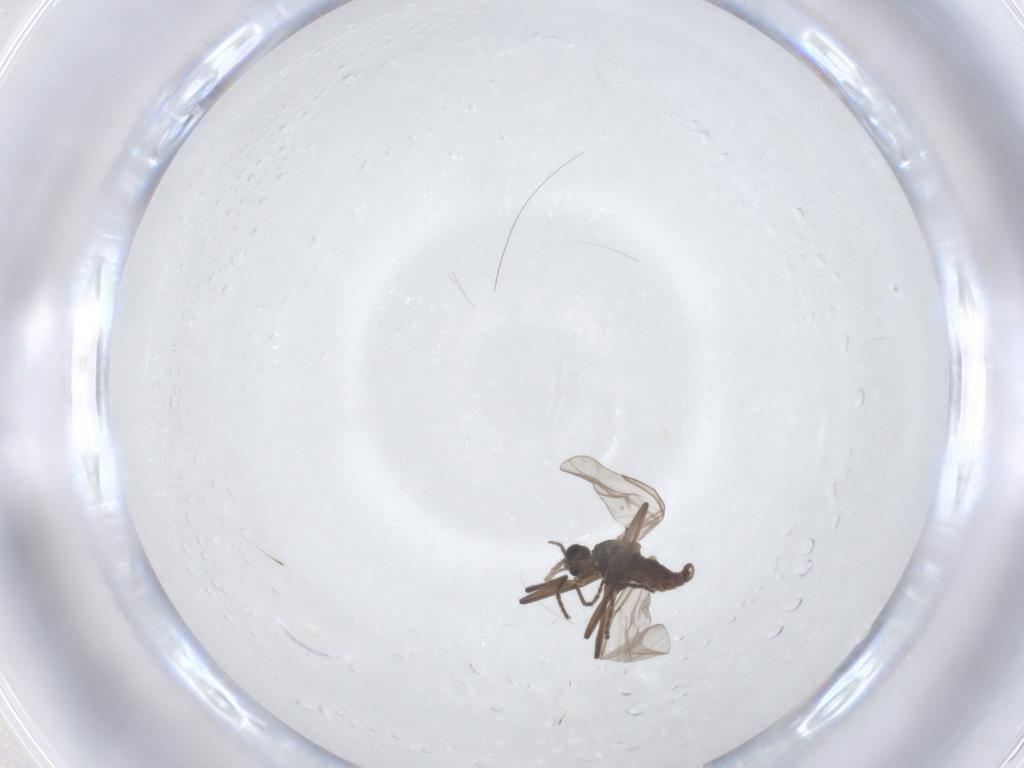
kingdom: Animalia
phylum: Arthropoda
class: Insecta
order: Diptera
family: Cecidomyiidae
